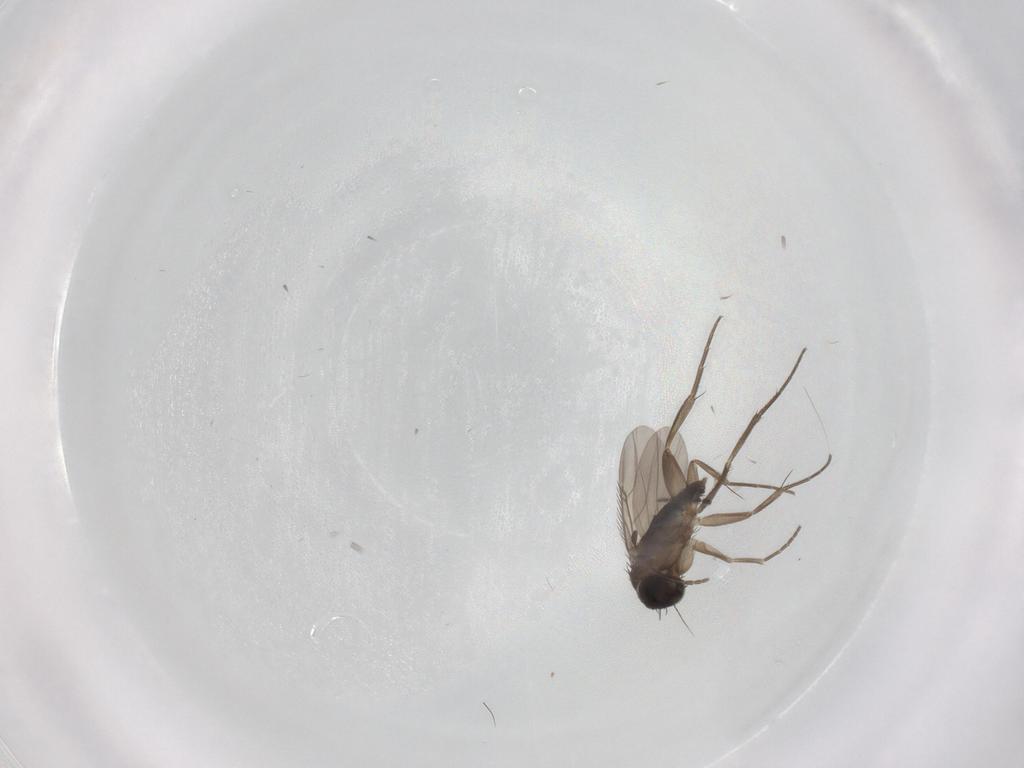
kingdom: Animalia
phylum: Arthropoda
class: Insecta
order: Diptera
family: Phoridae
